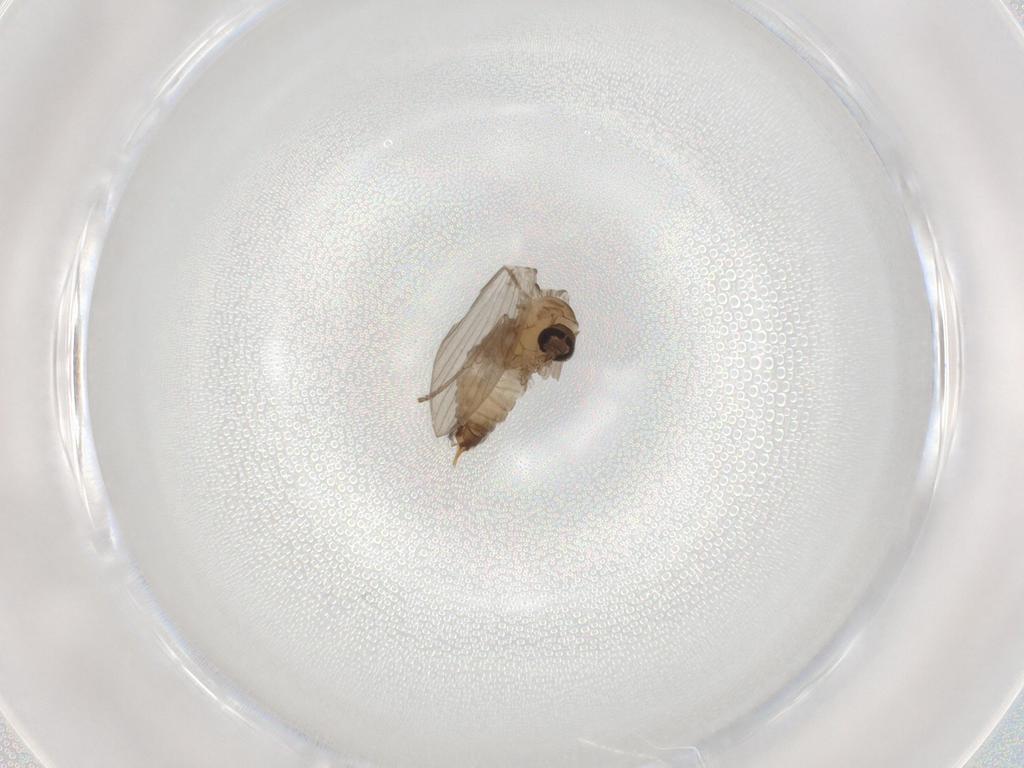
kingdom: Animalia
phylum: Arthropoda
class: Insecta
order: Diptera
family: Psychodidae
